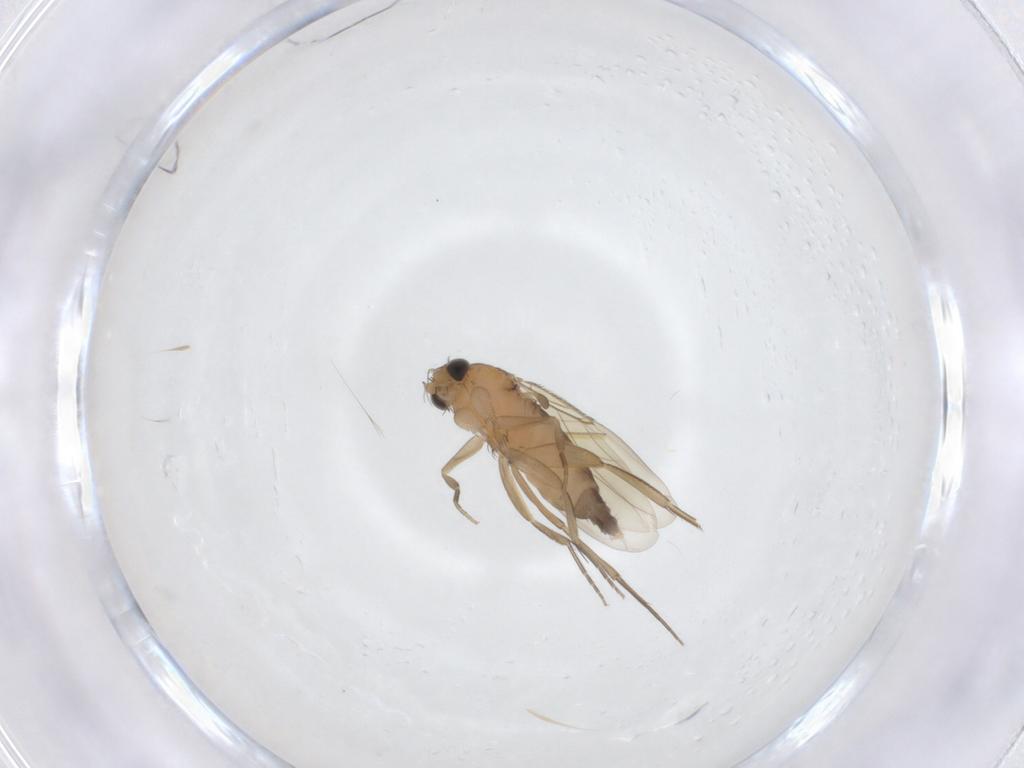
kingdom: Animalia
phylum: Arthropoda
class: Insecta
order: Diptera
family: Phoridae
